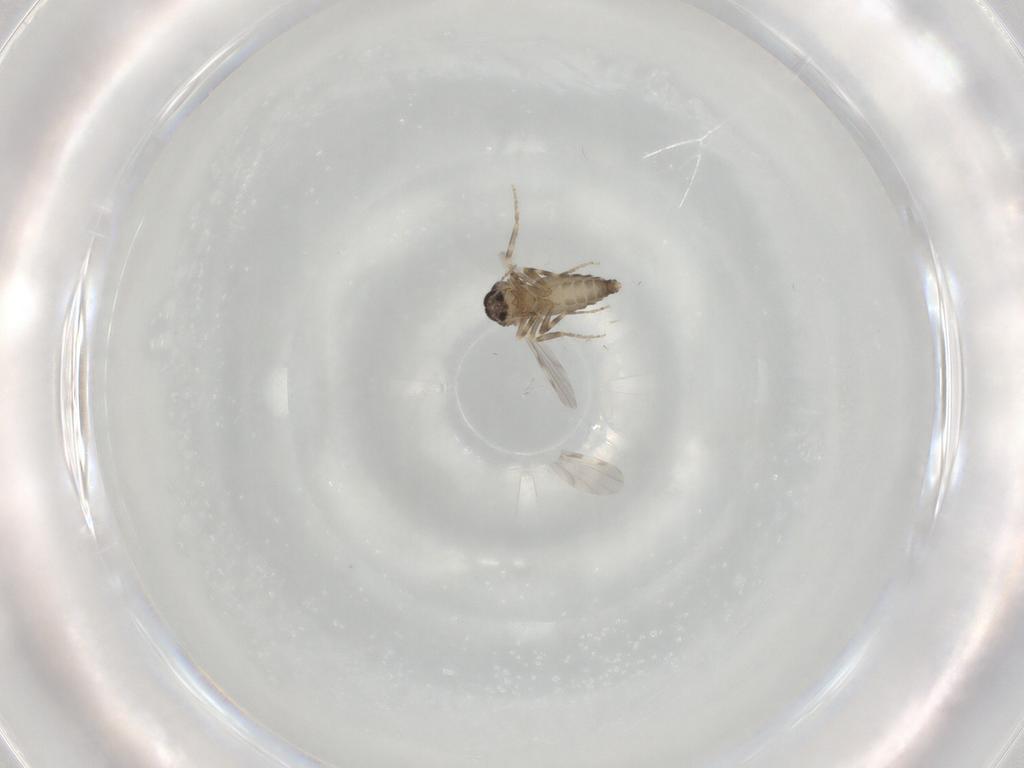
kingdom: Animalia
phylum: Arthropoda
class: Insecta
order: Diptera
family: Ceratopogonidae
